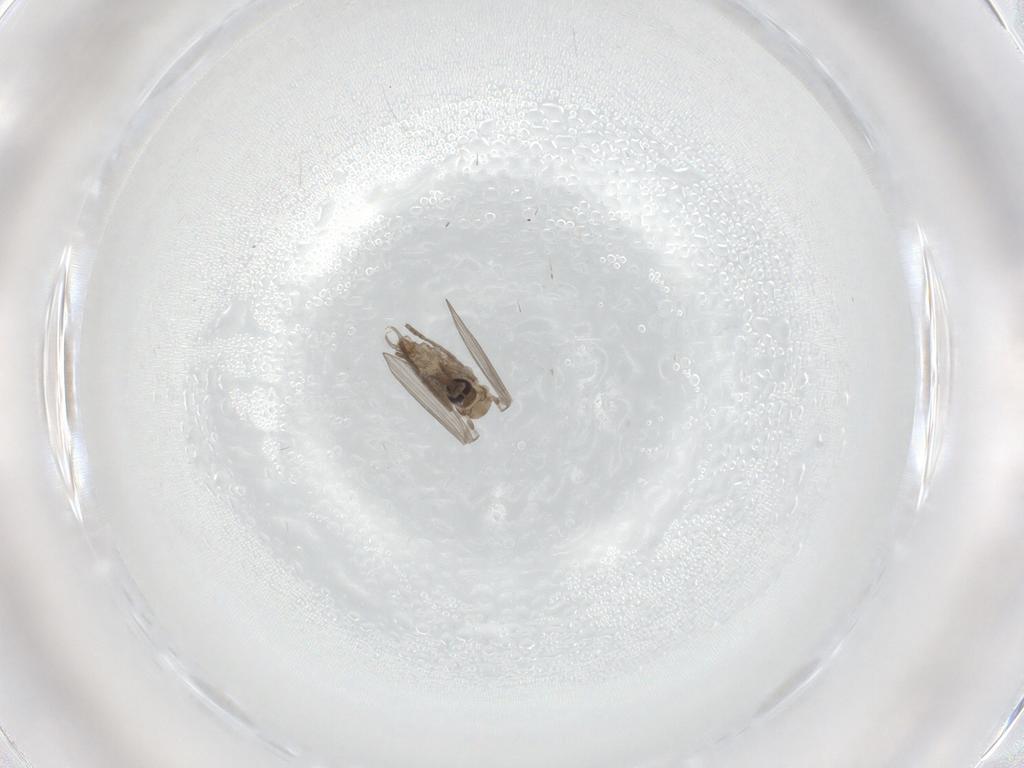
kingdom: Animalia
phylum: Arthropoda
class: Insecta
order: Diptera
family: Psychodidae
